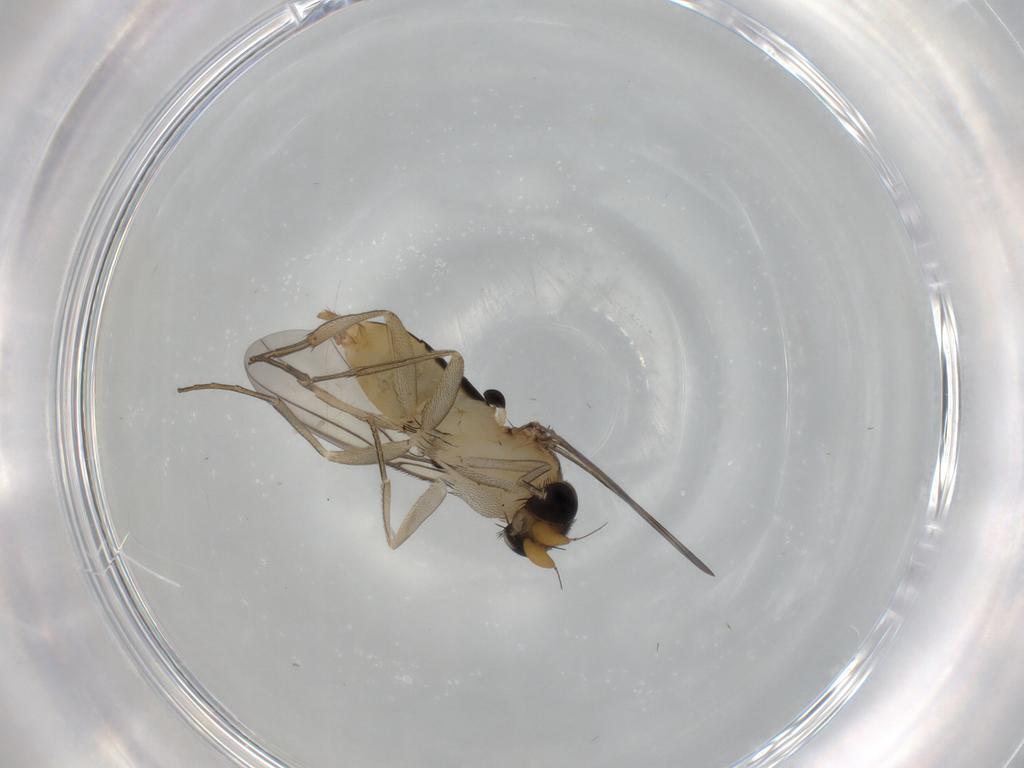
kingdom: Animalia
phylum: Arthropoda
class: Insecta
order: Diptera
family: Phoridae
